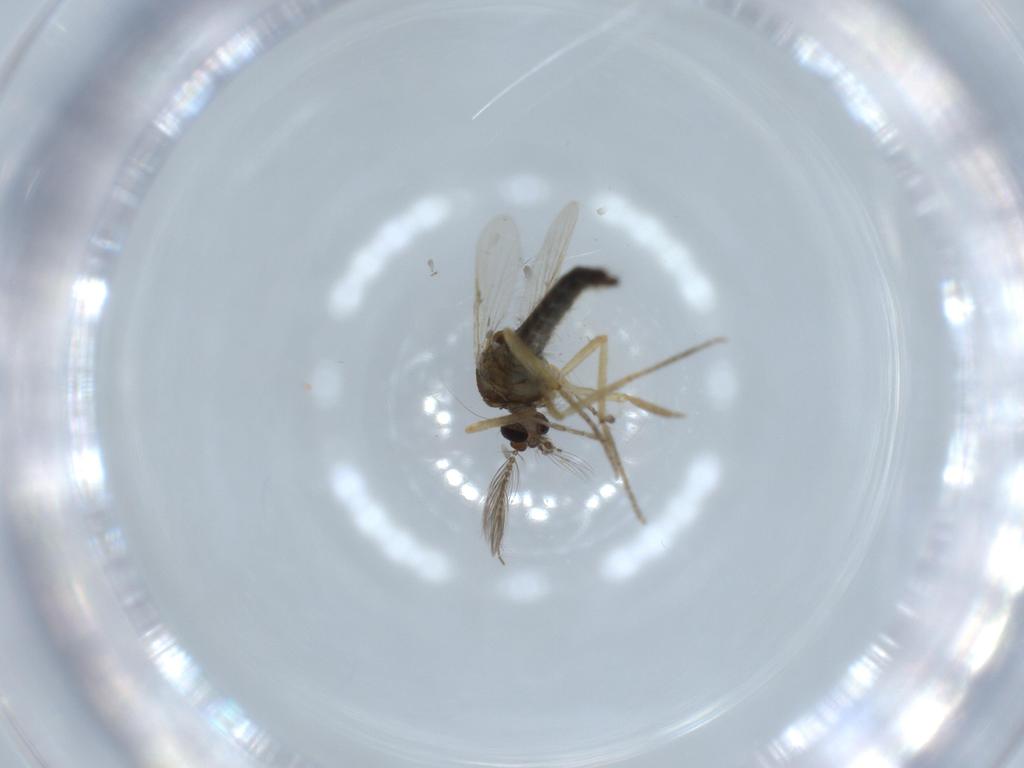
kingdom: Animalia
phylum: Arthropoda
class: Insecta
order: Diptera
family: Ceratopogonidae
